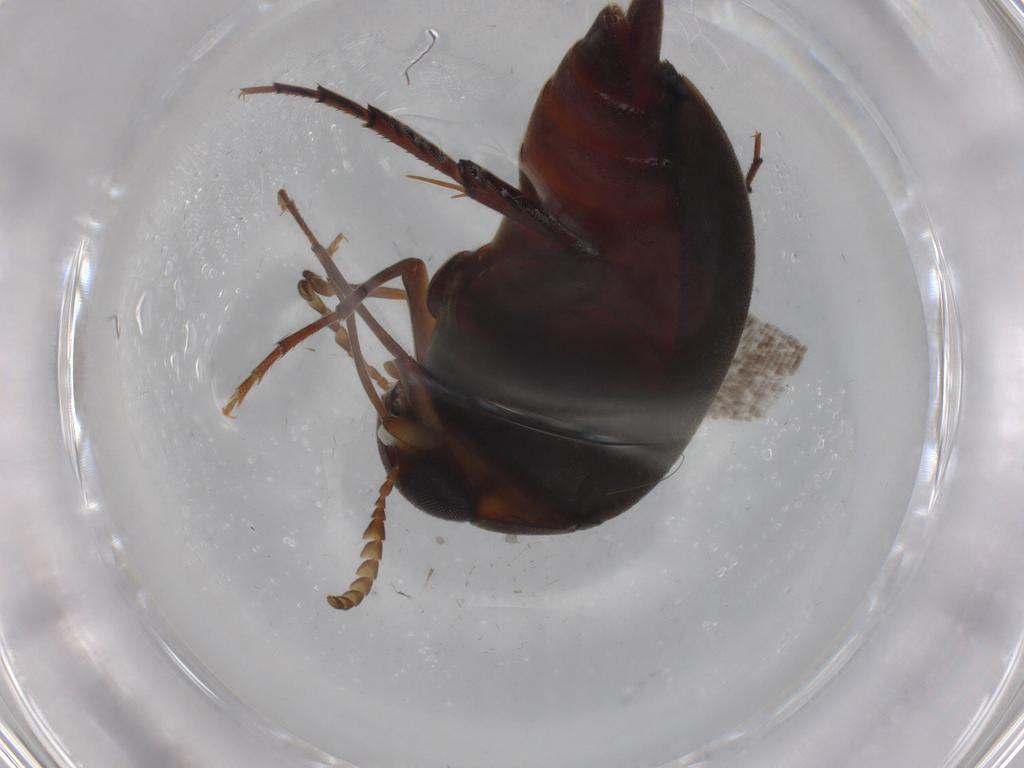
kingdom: Animalia
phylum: Arthropoda
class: Insecta
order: Coleoptera
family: Mordellidae
